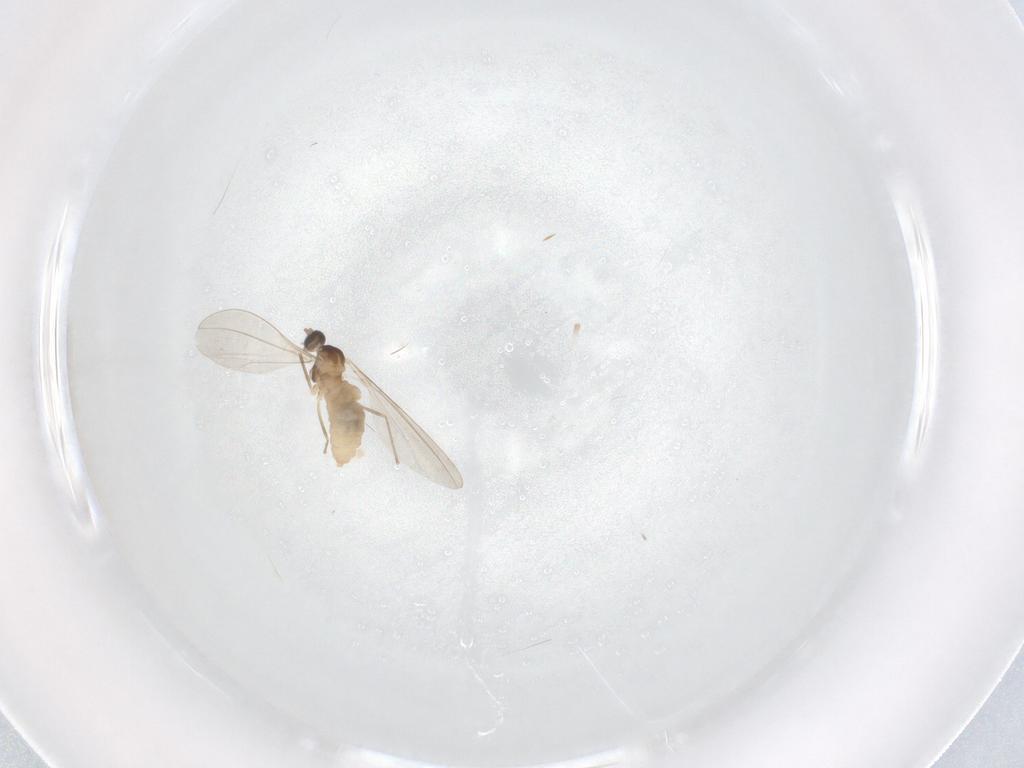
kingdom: Animalia
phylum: Arthropoda
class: Insecta
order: Diptera
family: Cecidomyiidae
